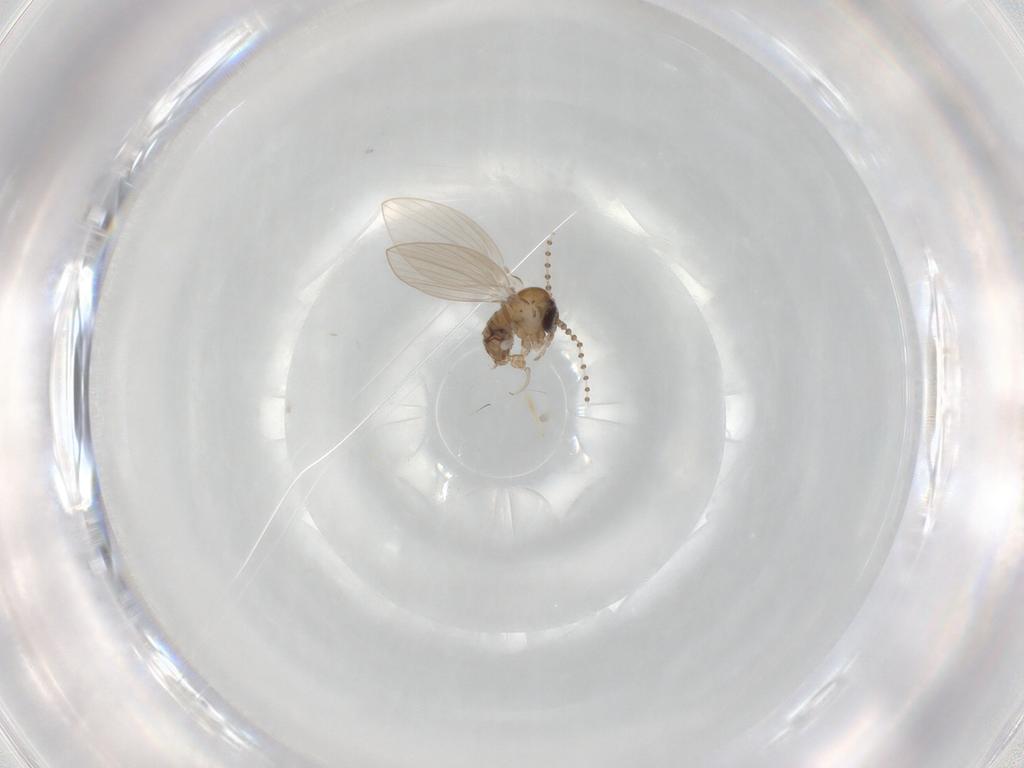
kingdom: Animalia
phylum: Arthropoda
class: Insecta
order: Diptera
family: Psychodidae
